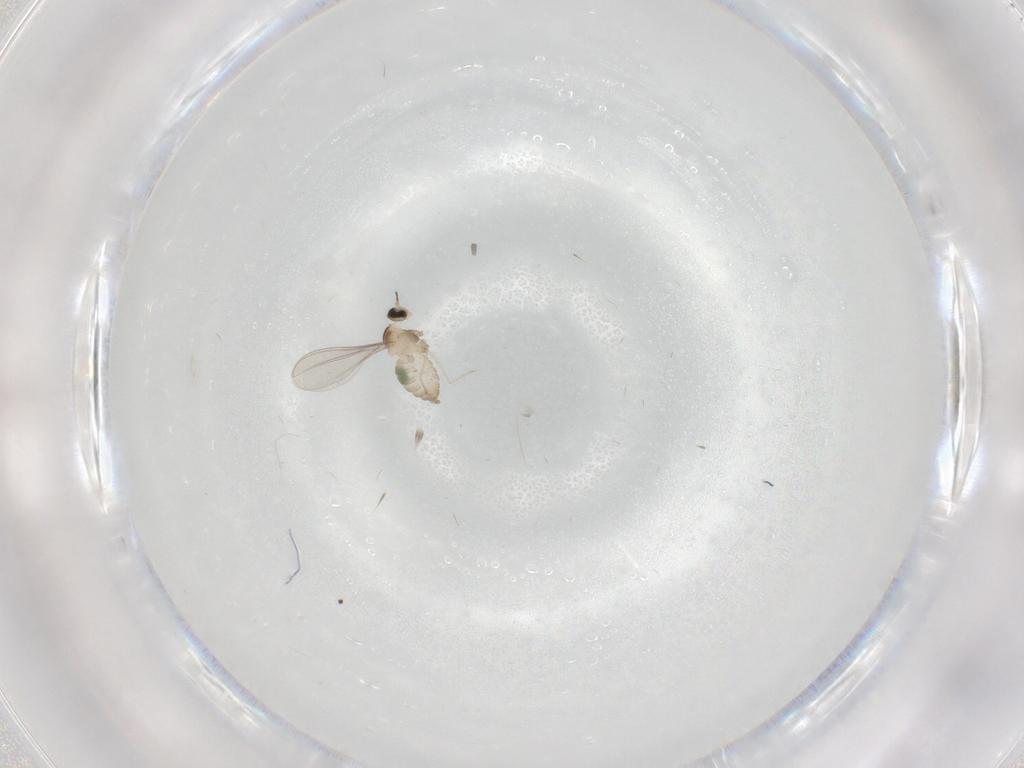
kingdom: Animalia
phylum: Arthropoda
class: Insecta
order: Diptera
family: Cecidomyiidae
